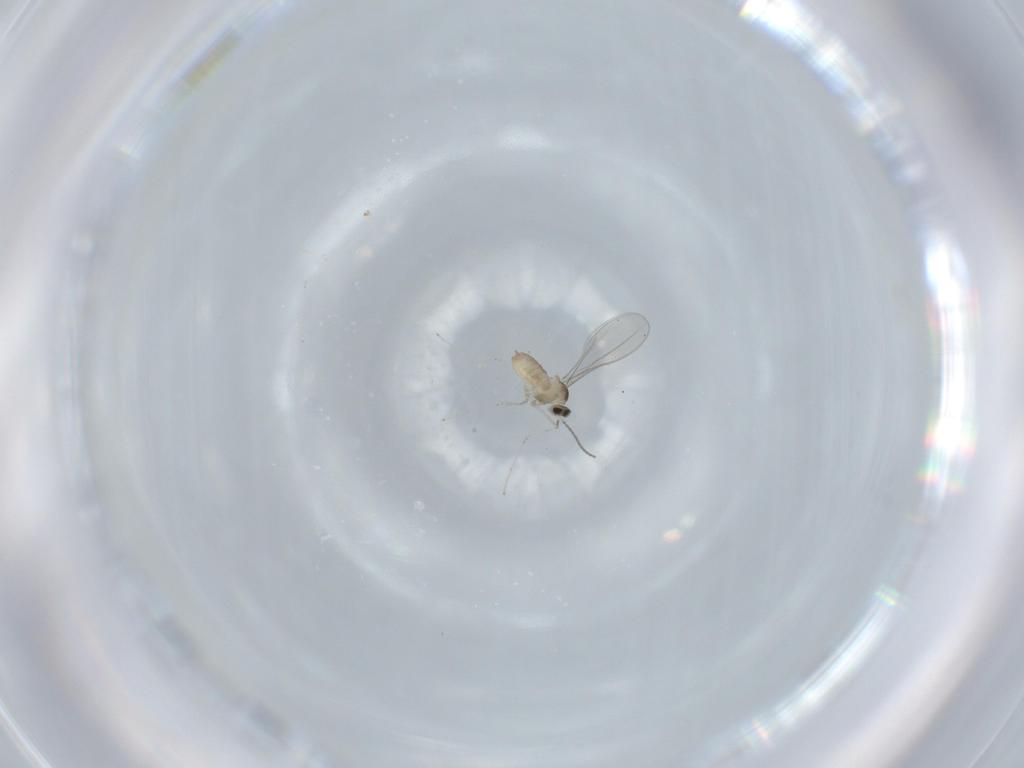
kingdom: Animalia
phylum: Arthropoda
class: Insecta
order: Diptera
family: Cecidomyiidae
